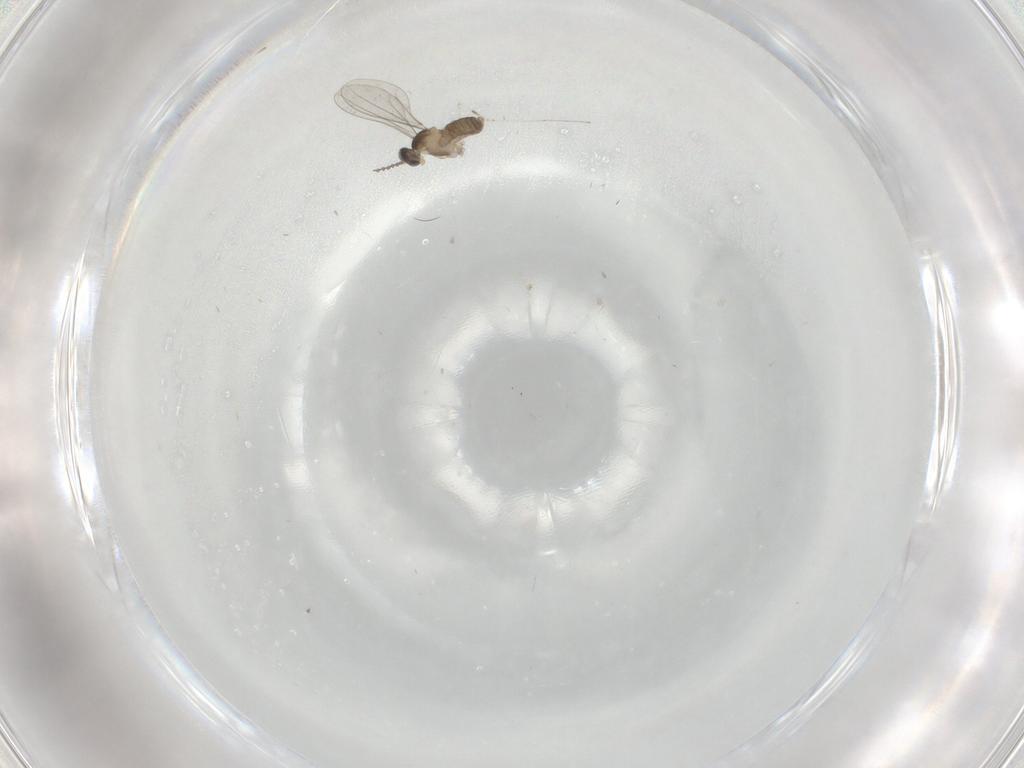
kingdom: Animalia
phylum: Arthropoda
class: Insecta
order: Diptera
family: Cecidomyiidae
